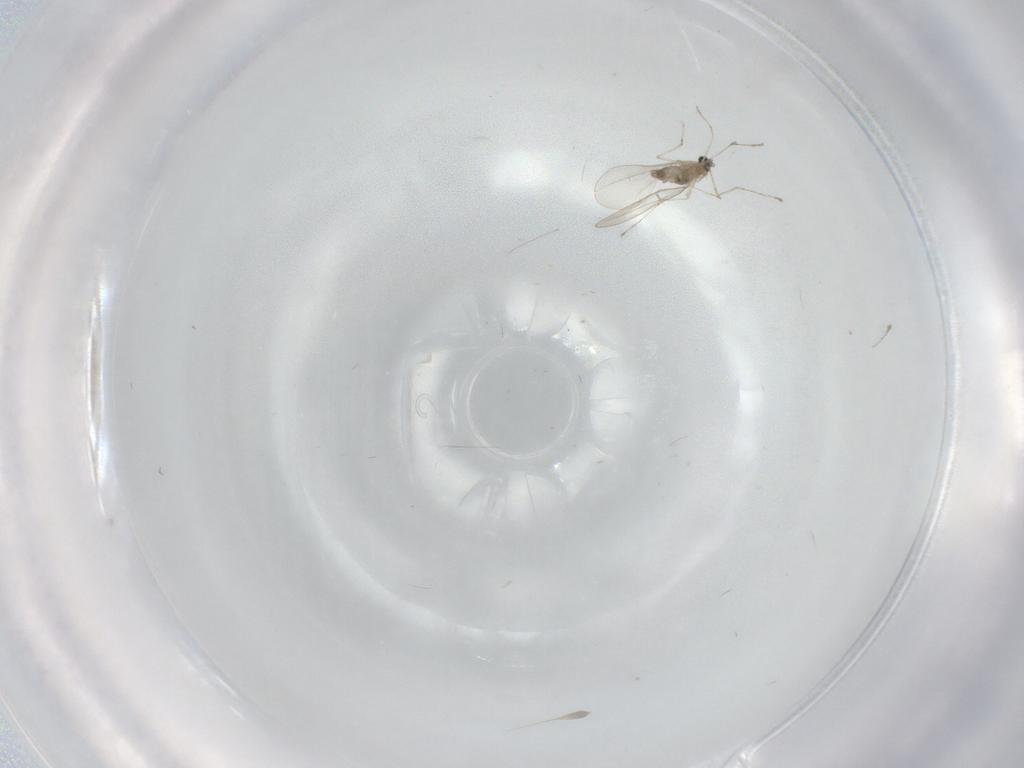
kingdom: Animalia
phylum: Arthropoda
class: Insecta
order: Diptera
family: Cecidomyiidae
